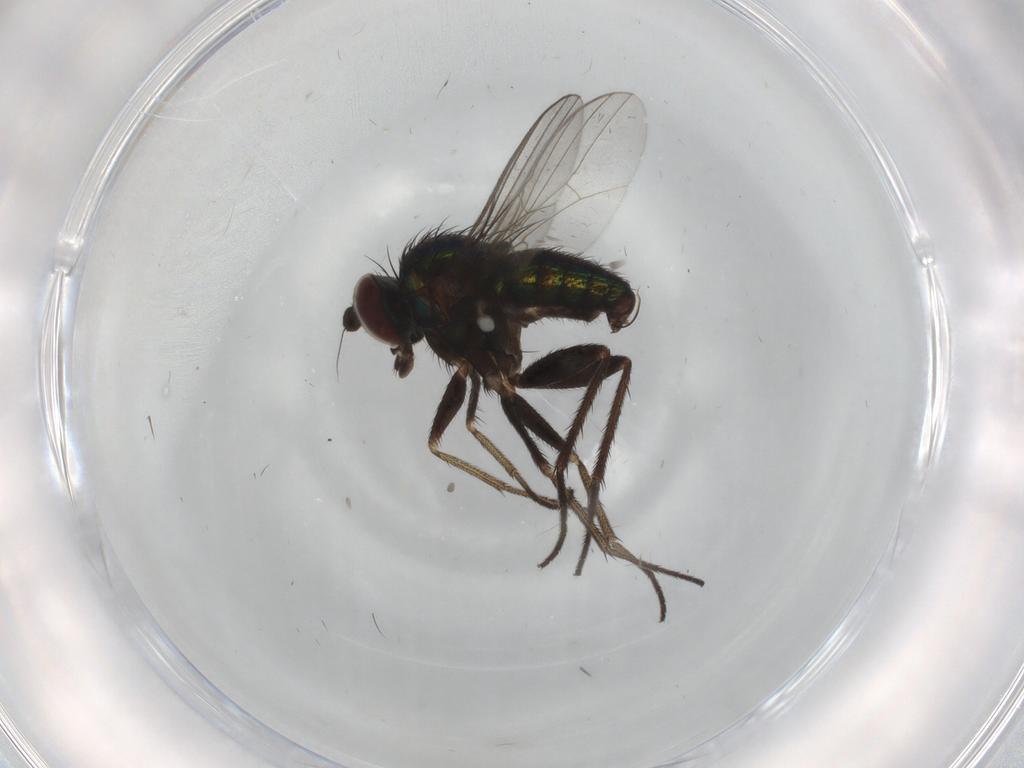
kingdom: Animalia
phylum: Arthropoda
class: Insecta
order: Diptera
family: Dolichopodidae
